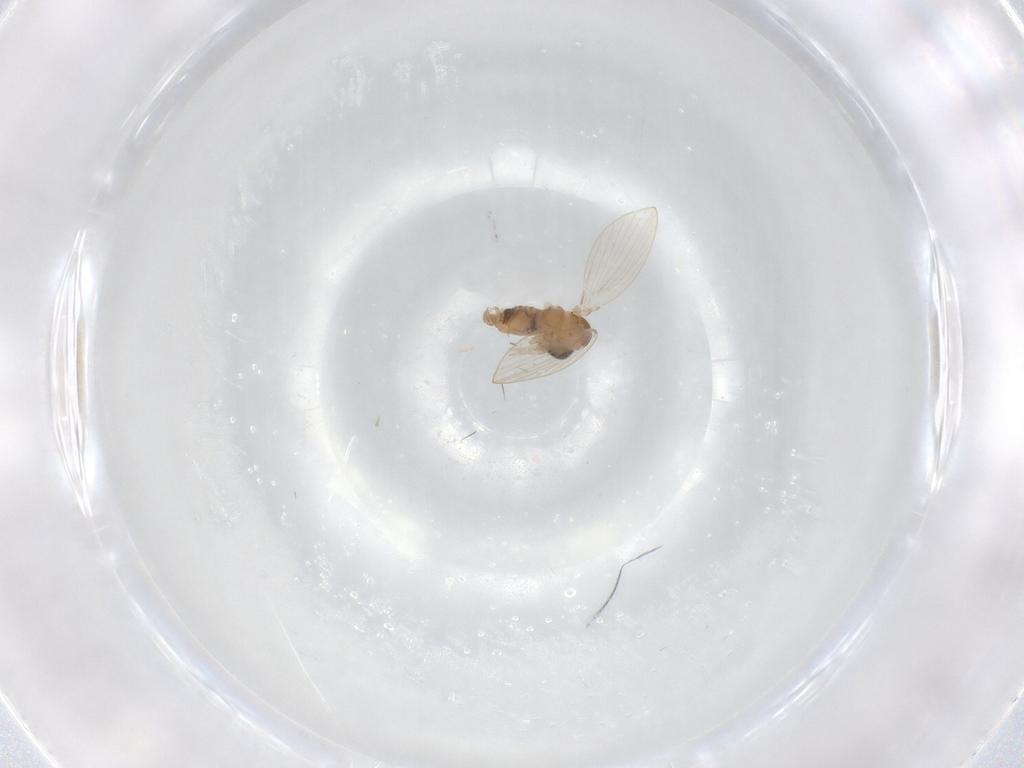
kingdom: Animalia
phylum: Arthropoda
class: Insecta
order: Diptera
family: Psychodidae
